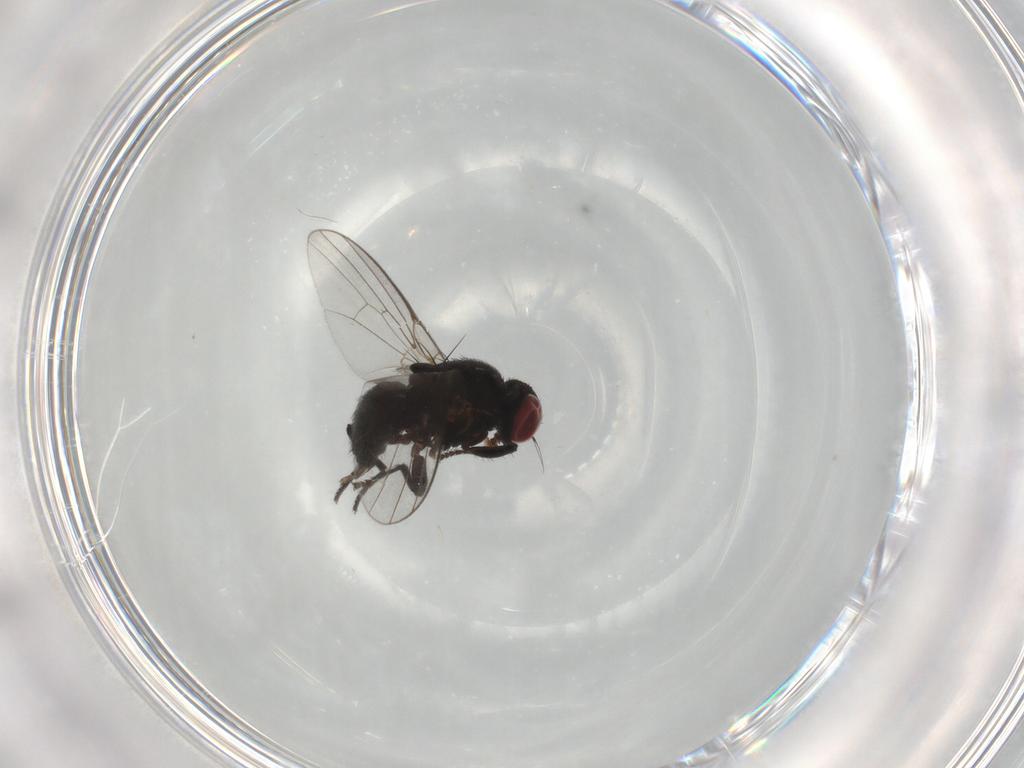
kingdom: Animalia
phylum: Arthropoda
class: Insecta
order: Diptera
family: Agromyzidae
